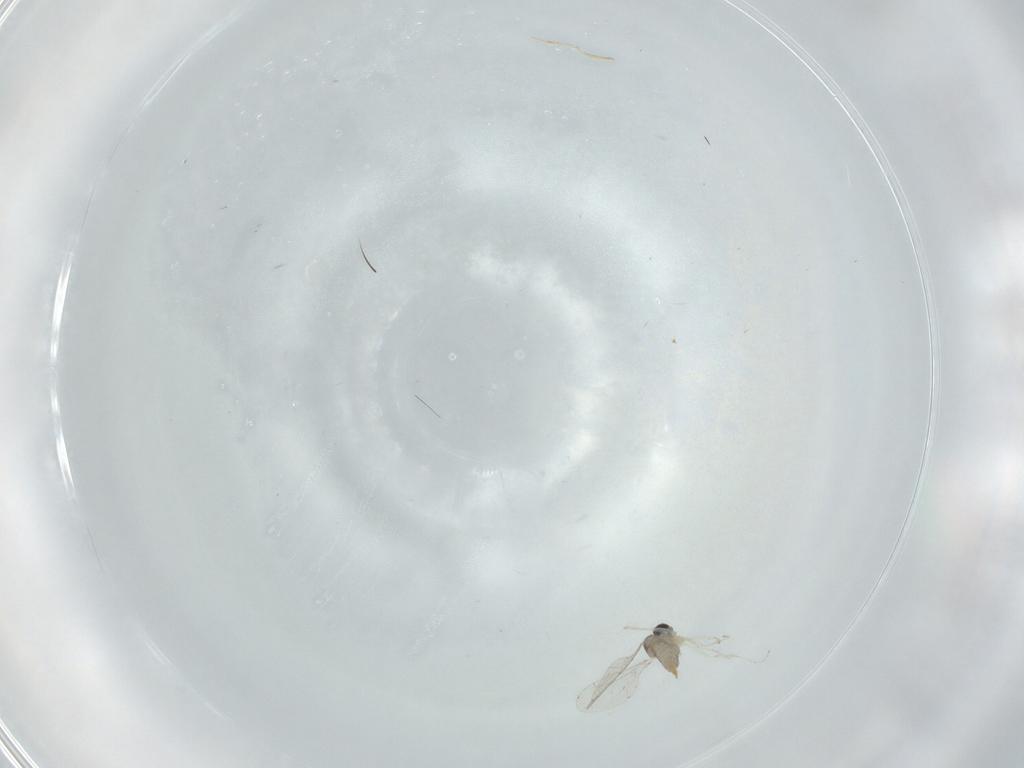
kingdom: Animalia
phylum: Arthropoda
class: Insecta
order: Diptera
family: Cecidomyiidae
